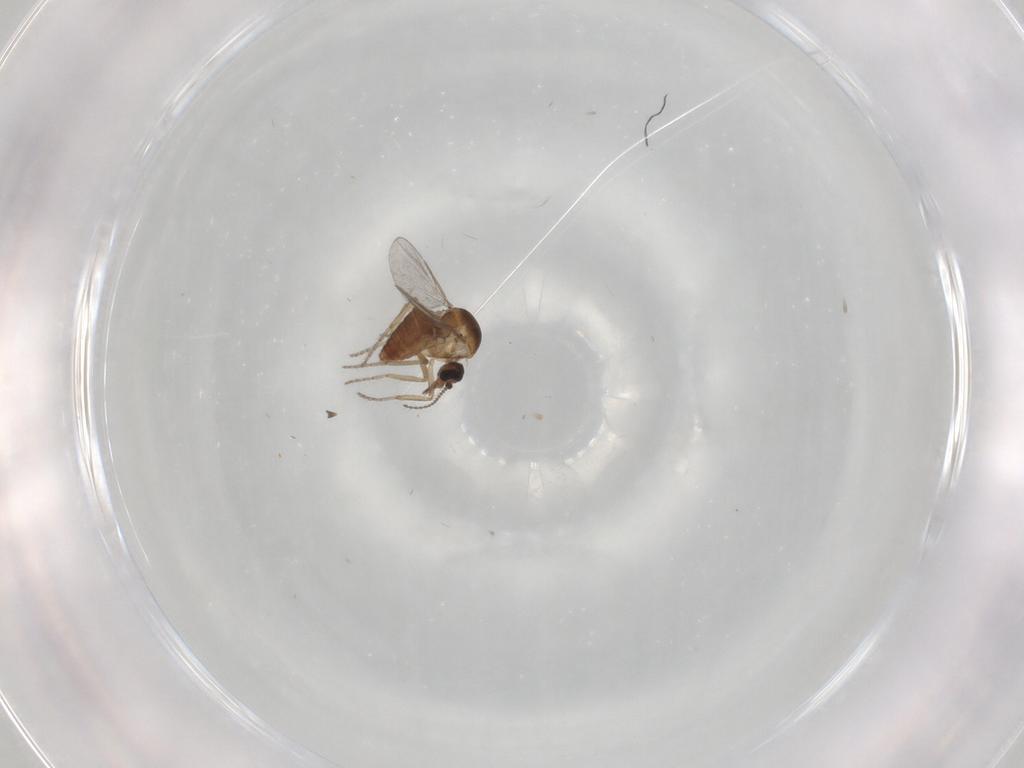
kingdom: Animalia
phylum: Arthropoda
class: Insecta
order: Diptera
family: Ceratopogonidae
